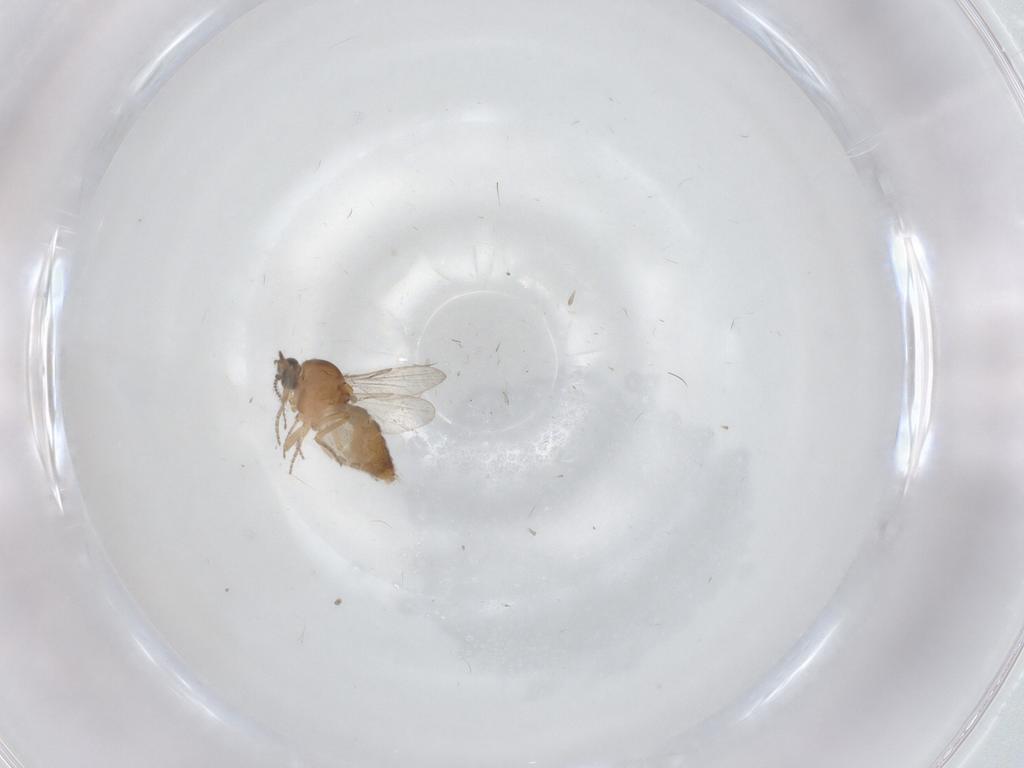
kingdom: Animalia
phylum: Arthropoda
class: Insecta
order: Diptera
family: Ceratopogonidae
